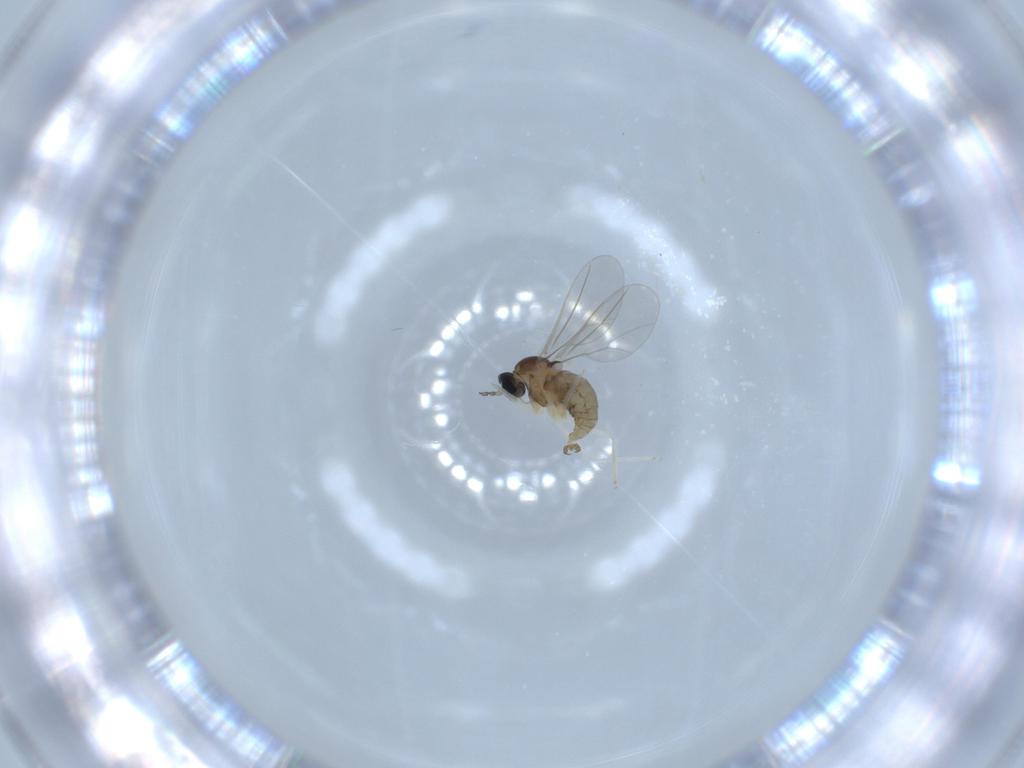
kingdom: Animalia
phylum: Arthropoda
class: Insecta
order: Diptera
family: Cecidomyiidae
